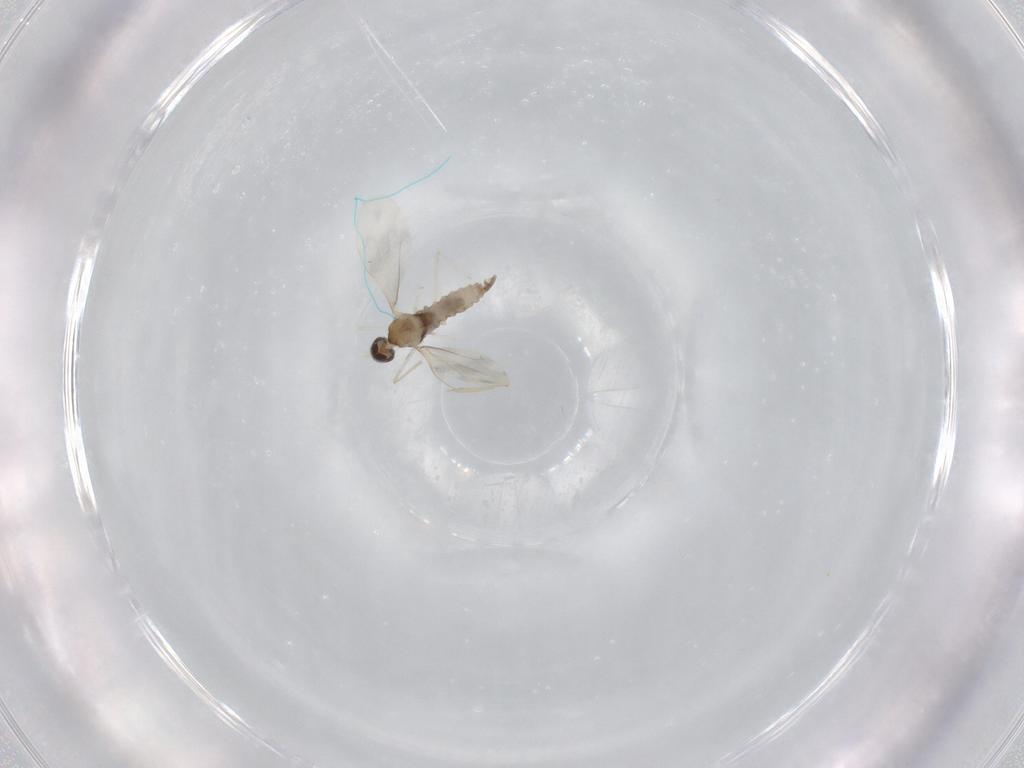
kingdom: Animalia
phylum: Arthropoda
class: Insecta
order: Diptera
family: Cecidomyiidae
